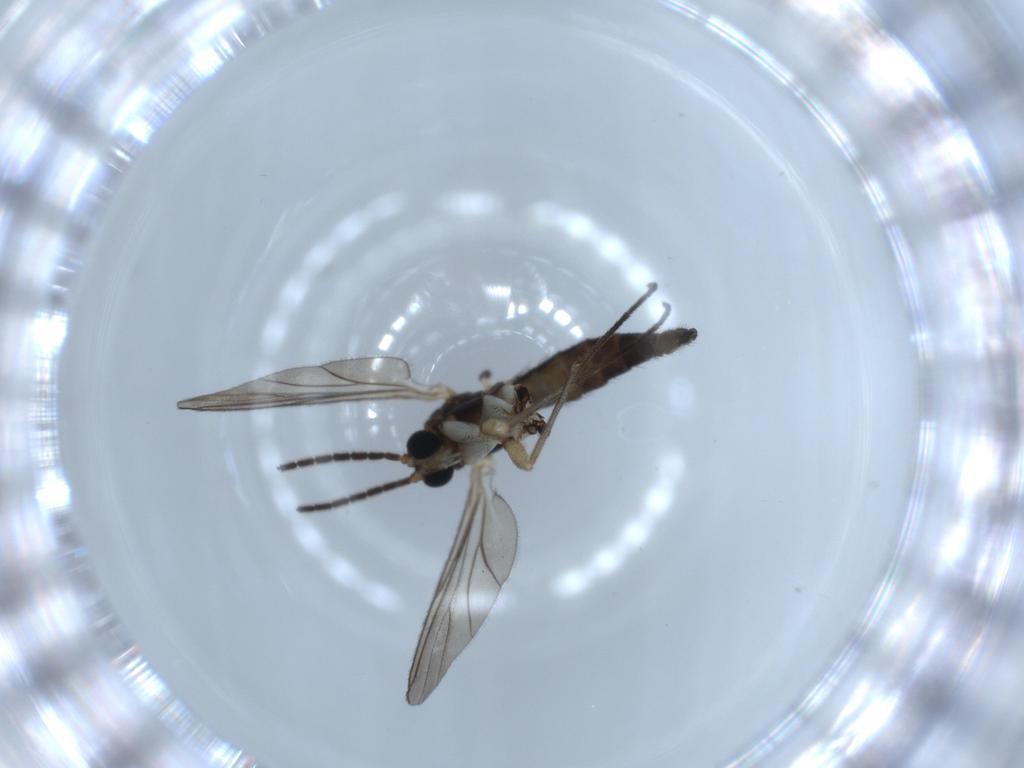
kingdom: Animalia
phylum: Arthropoda
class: Insecta
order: Diptera
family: Sciaridae
